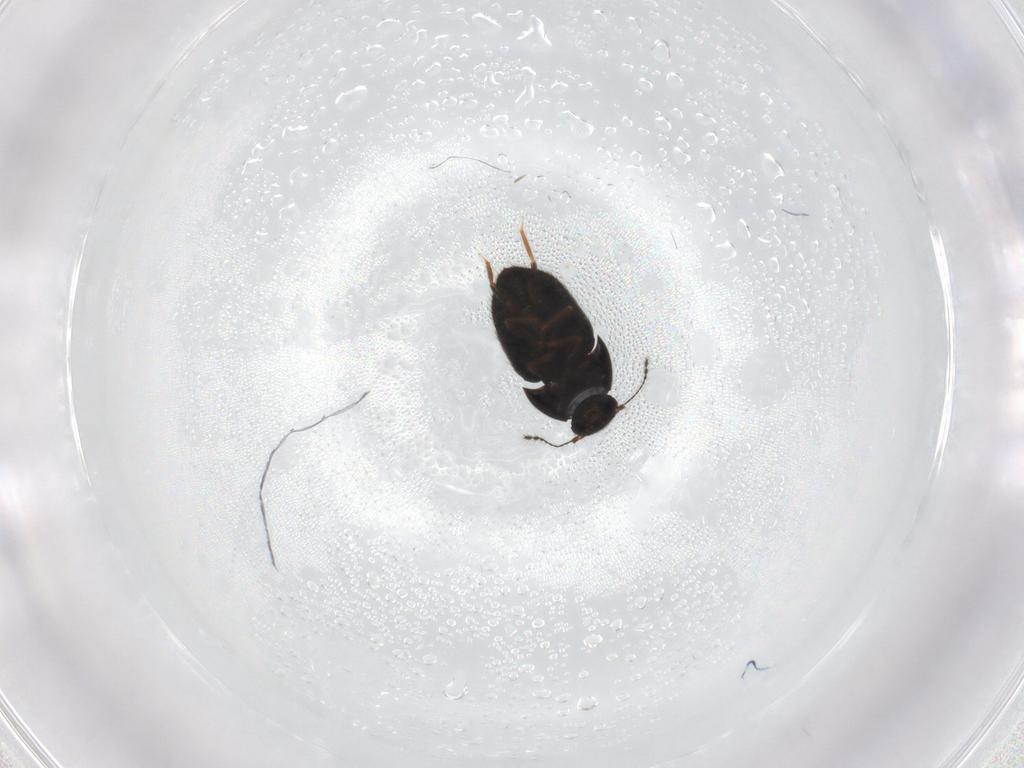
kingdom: Animalia
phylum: Arthropoda
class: Insecta
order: Coleoptera
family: Ptiliidae
